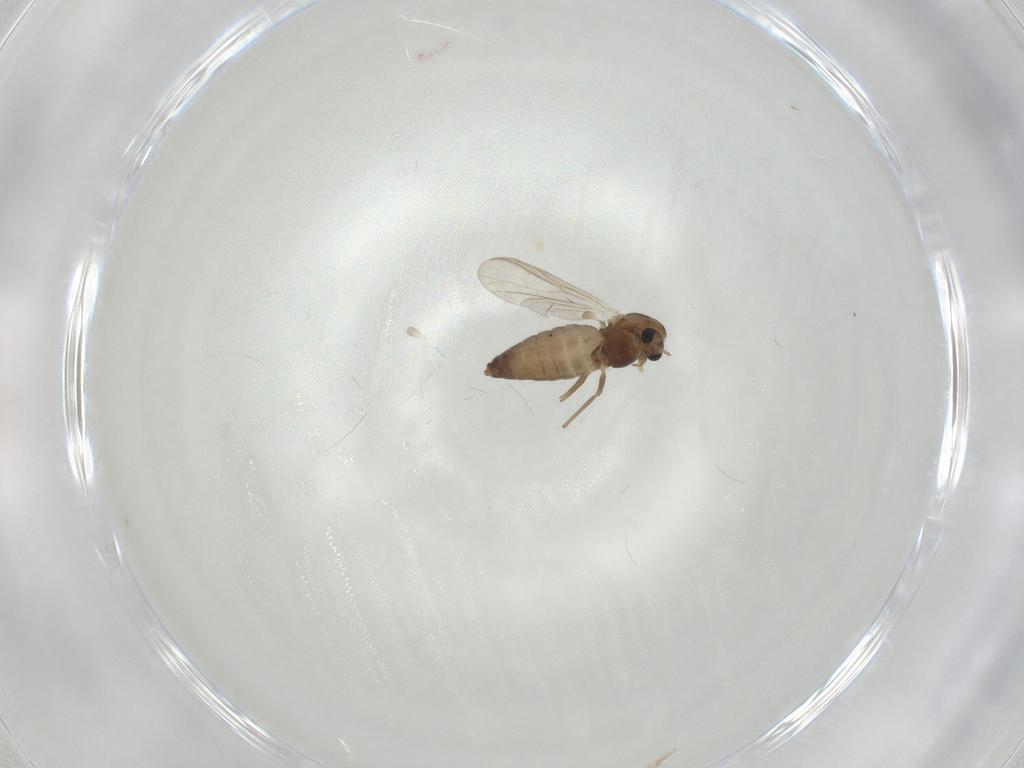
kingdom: Animalia
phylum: Arthropoda
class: Insecta
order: Diptera
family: Chironomidae
